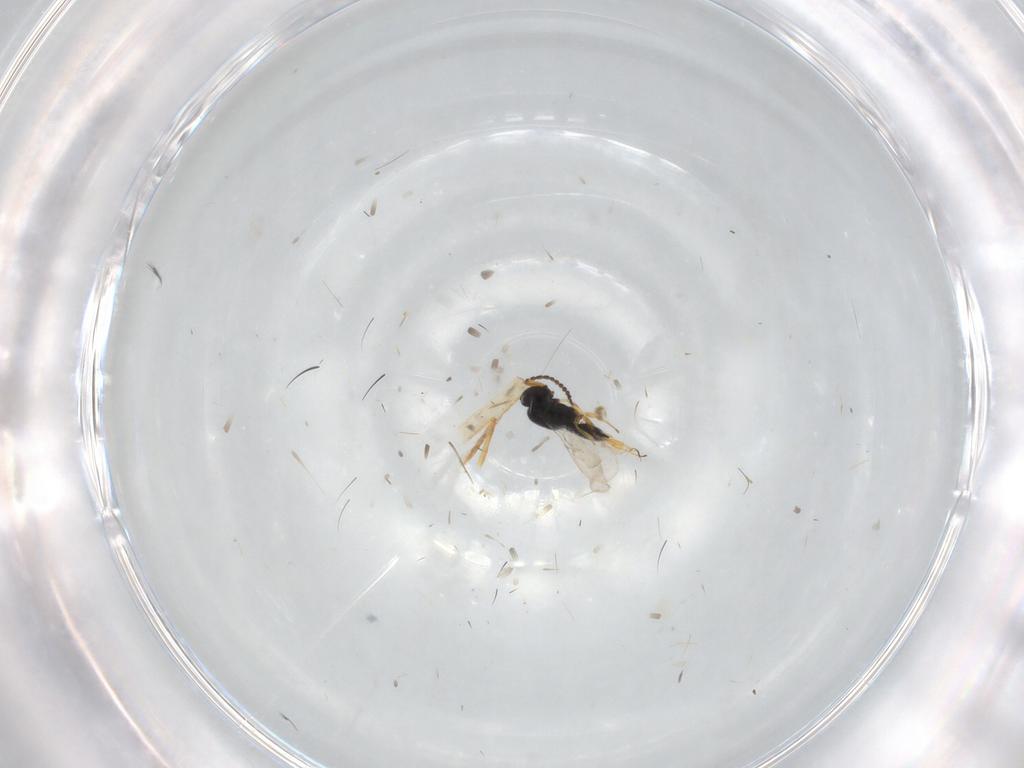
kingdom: Animalia
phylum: Arthropoda
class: Insecta
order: Hymenoptera
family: Scelionidae
